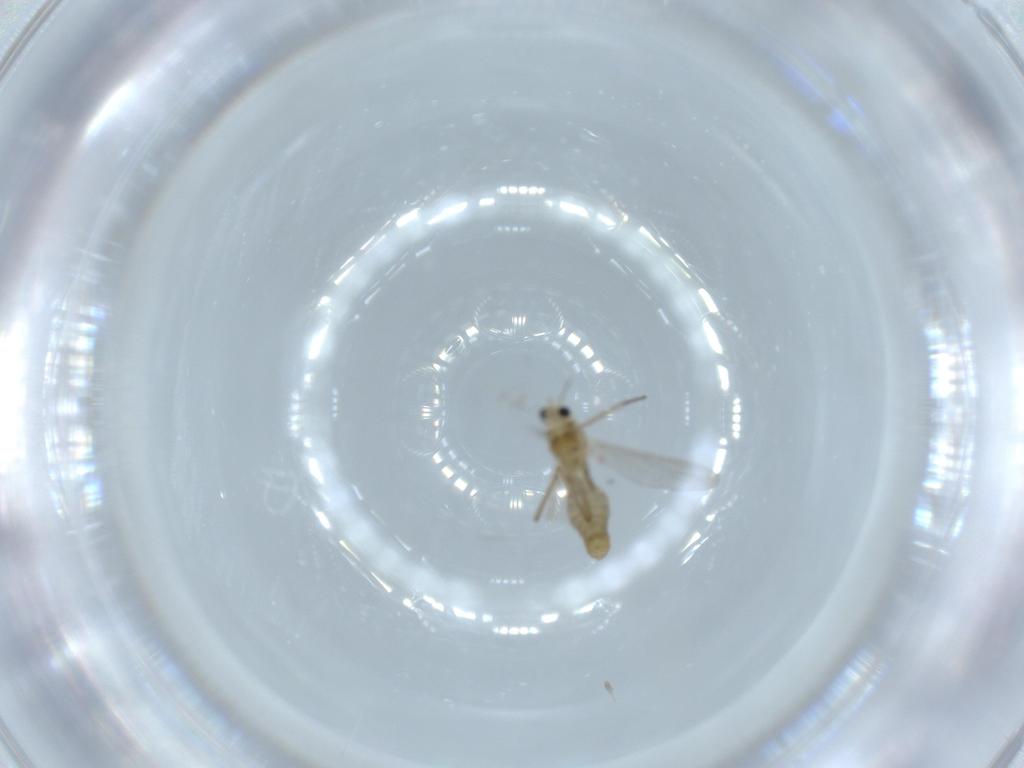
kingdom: Animalia
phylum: Arthropoda
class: Insecta
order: Diptera
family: Chironomidae
